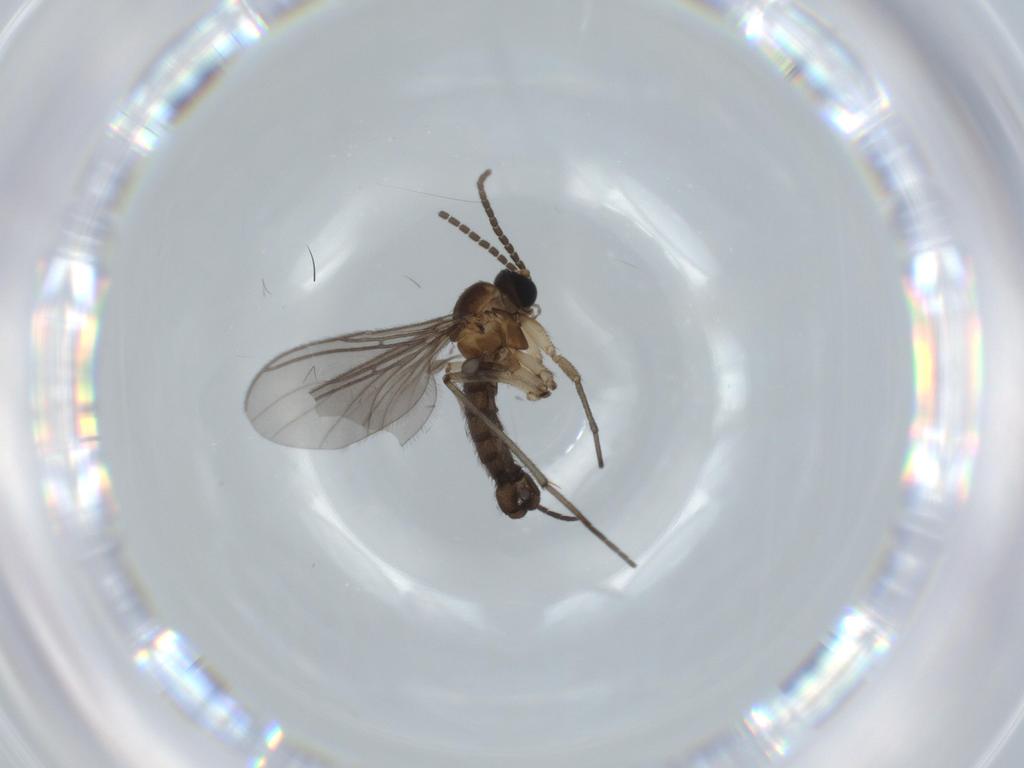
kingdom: Animalia
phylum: Arthropoda
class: Insecta
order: Diptera
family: Sciaridae
